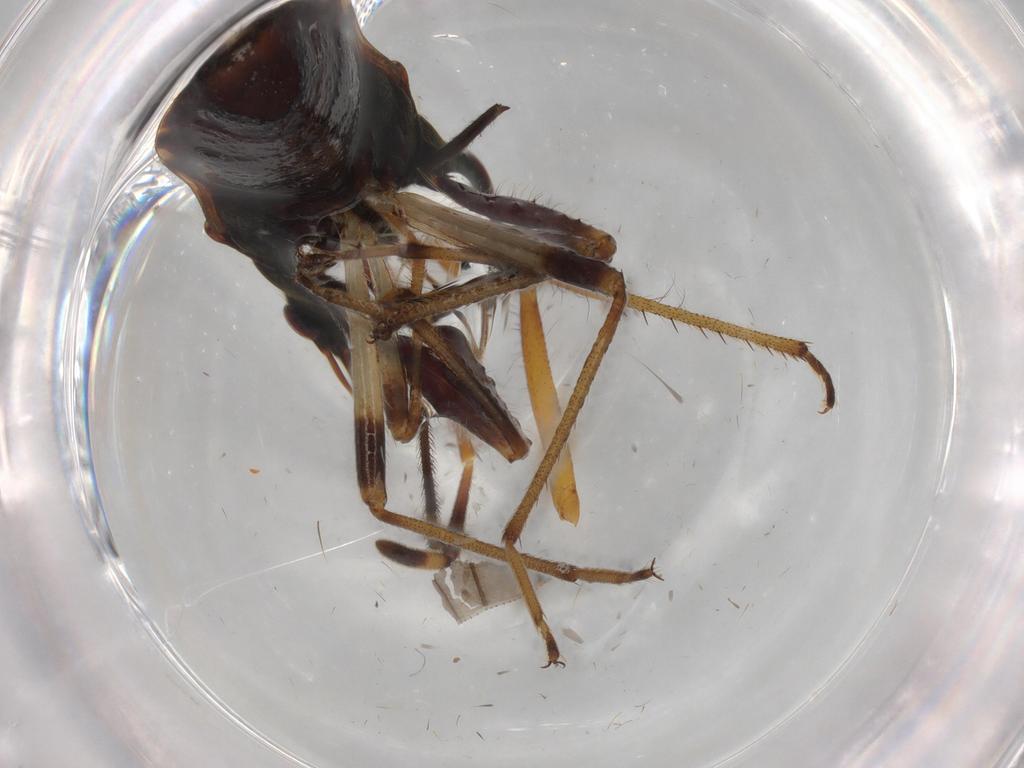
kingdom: Animalia
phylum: Arthropoda
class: Insecta
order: Hemiptera
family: Rhyparochromidae
